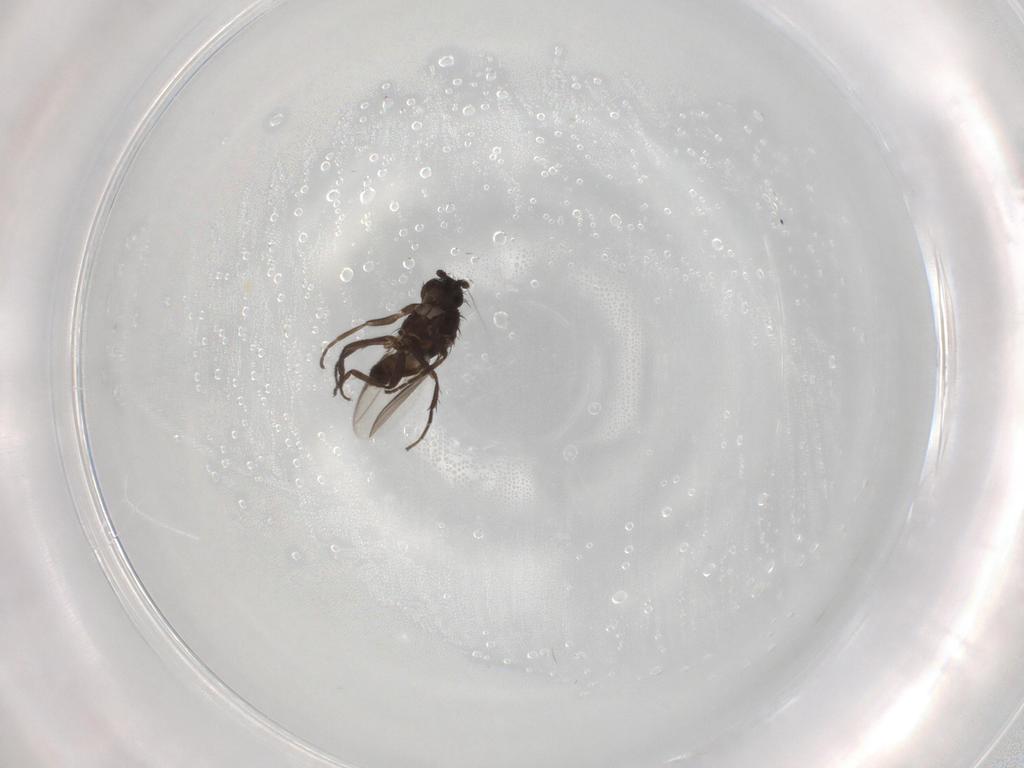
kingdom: Animalia
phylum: Arthropoda
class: Insecta
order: Diptera
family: Sphaeroceridae
